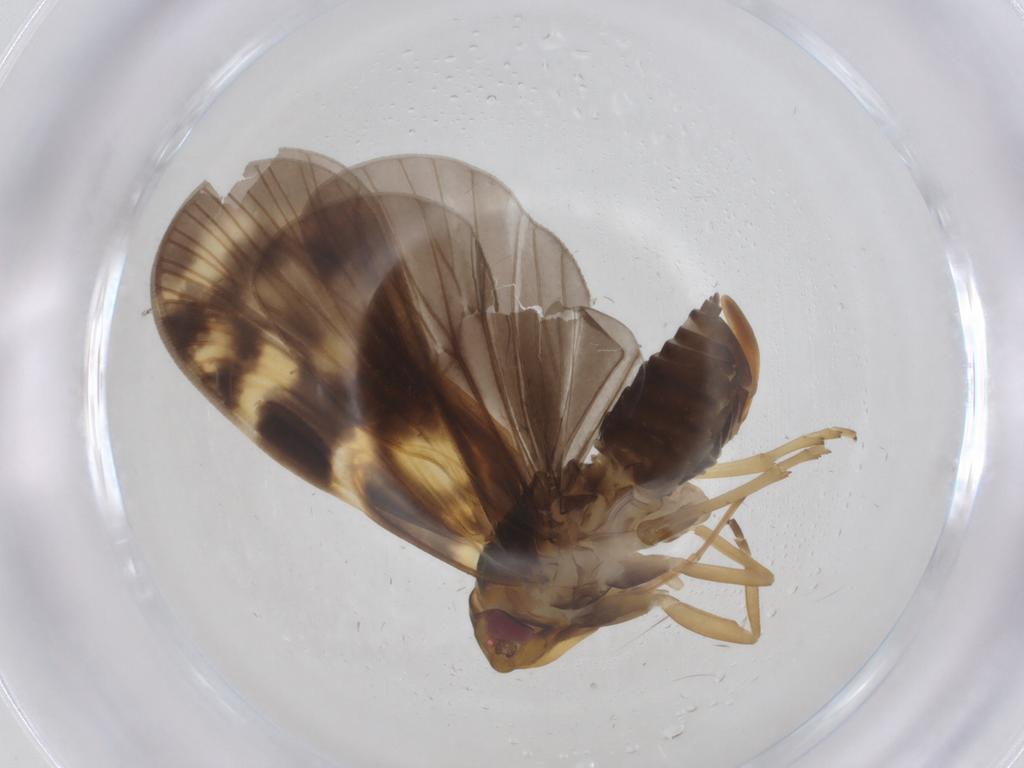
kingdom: Animalia
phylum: Arthropoda
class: Insecta
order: Hemiptera
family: Cixiidae
